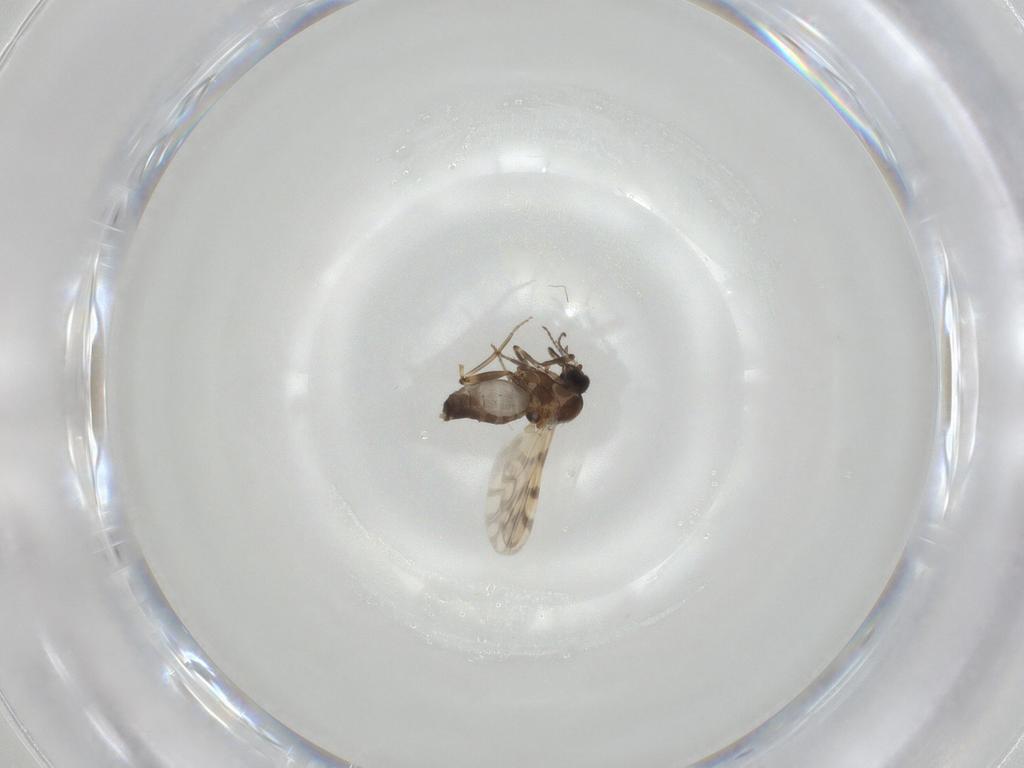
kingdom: Animalia
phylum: Arthropoda
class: Insecta
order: Diptera
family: Ceratopogonidae
